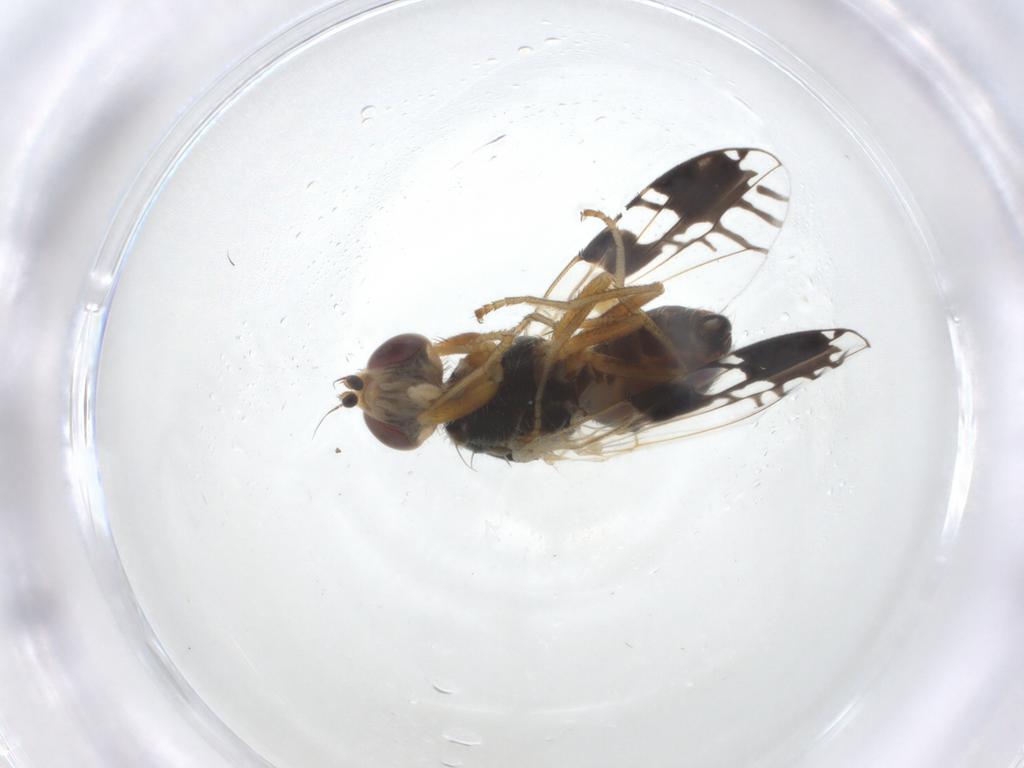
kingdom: Animalia
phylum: Arthropoda
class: Insecta
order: Diptera
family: Tephritidae
